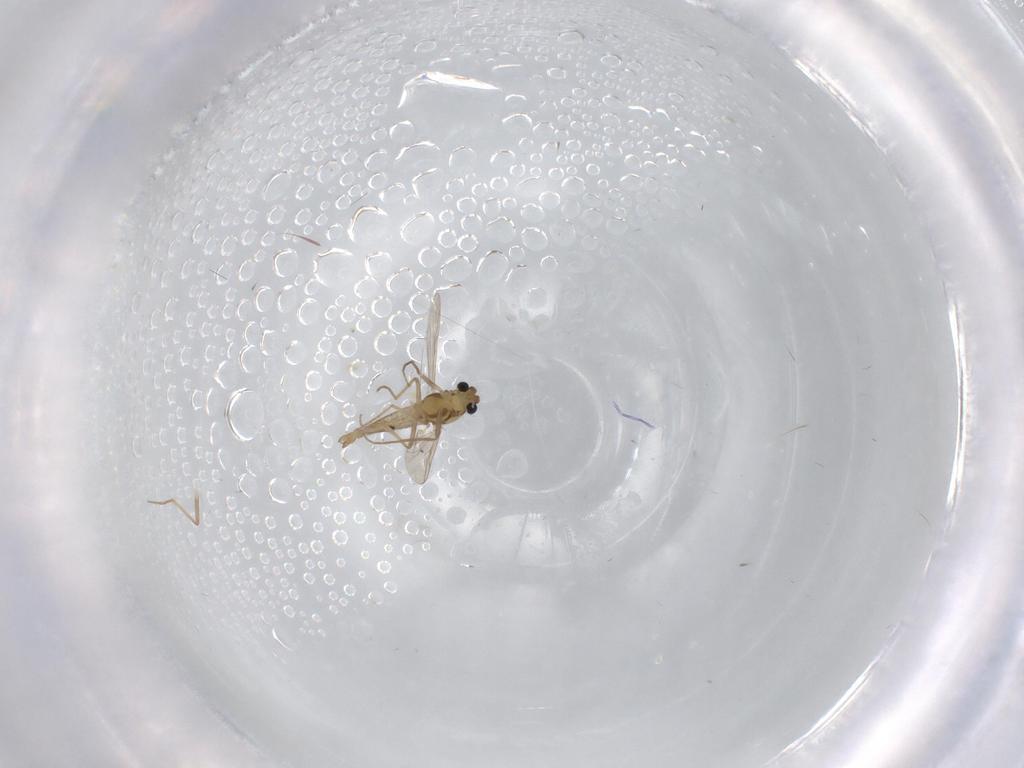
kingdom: Animalia
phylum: Arthropoda
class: Insecta
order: Diptera
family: Chironomidae
